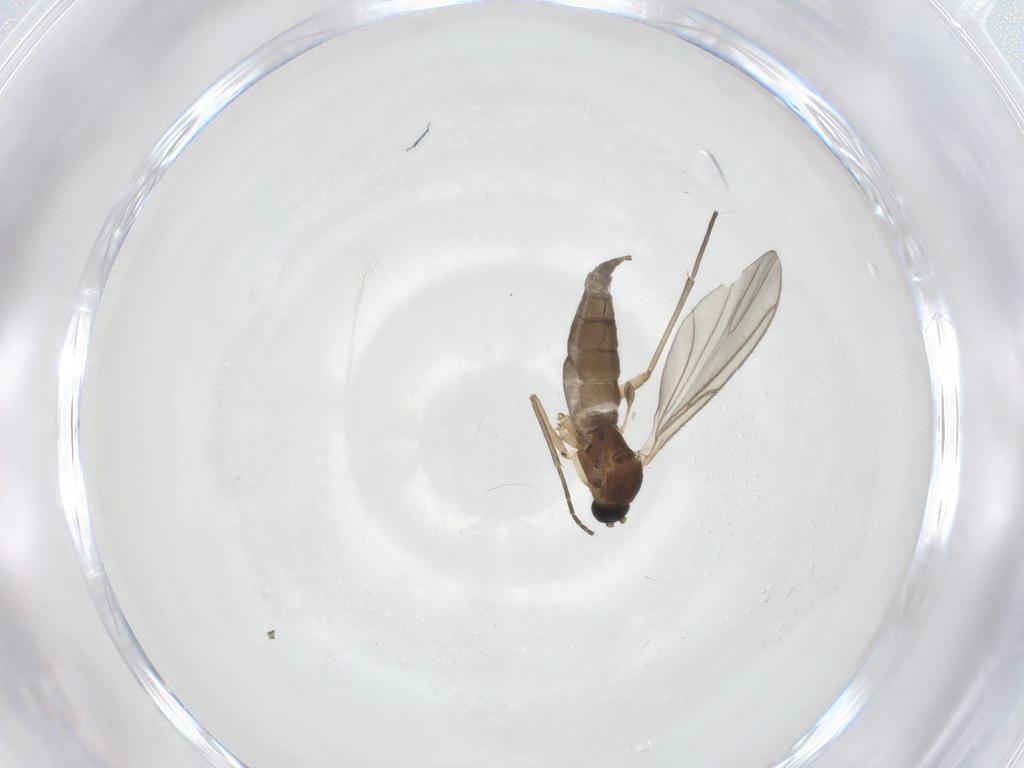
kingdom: Animalia
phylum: Arthropoda
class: Insecta
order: Diptera
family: Sciaridae
